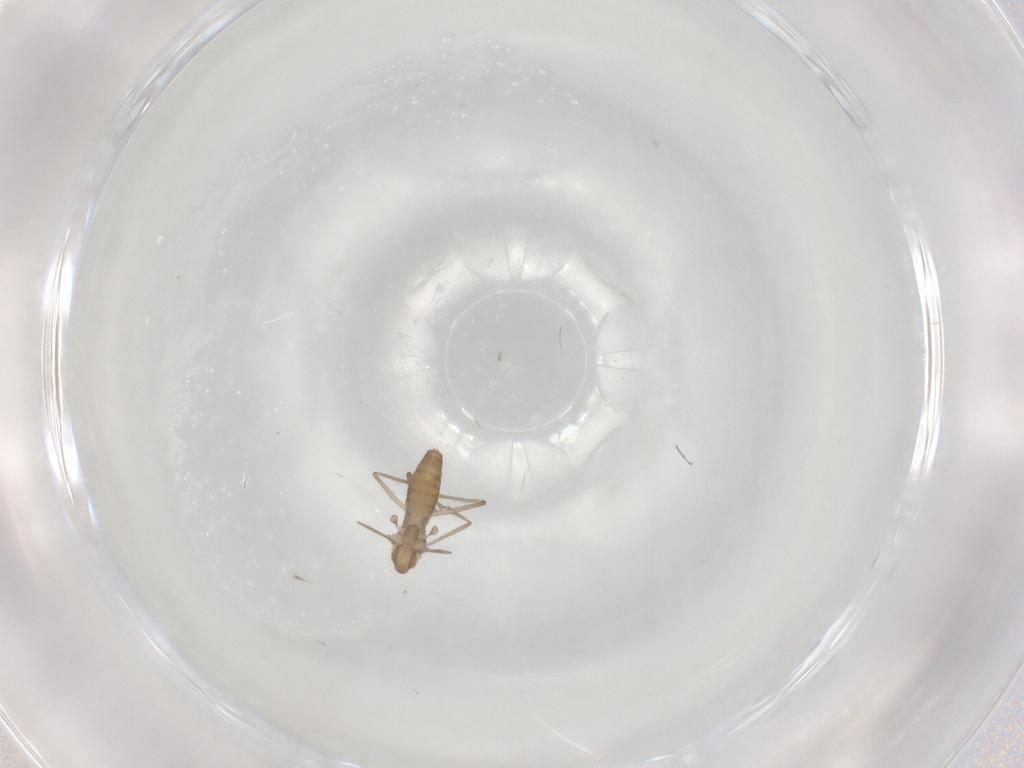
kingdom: Animalia
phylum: Arthropoda
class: Insecta
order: Diptera
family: Chironomidae
